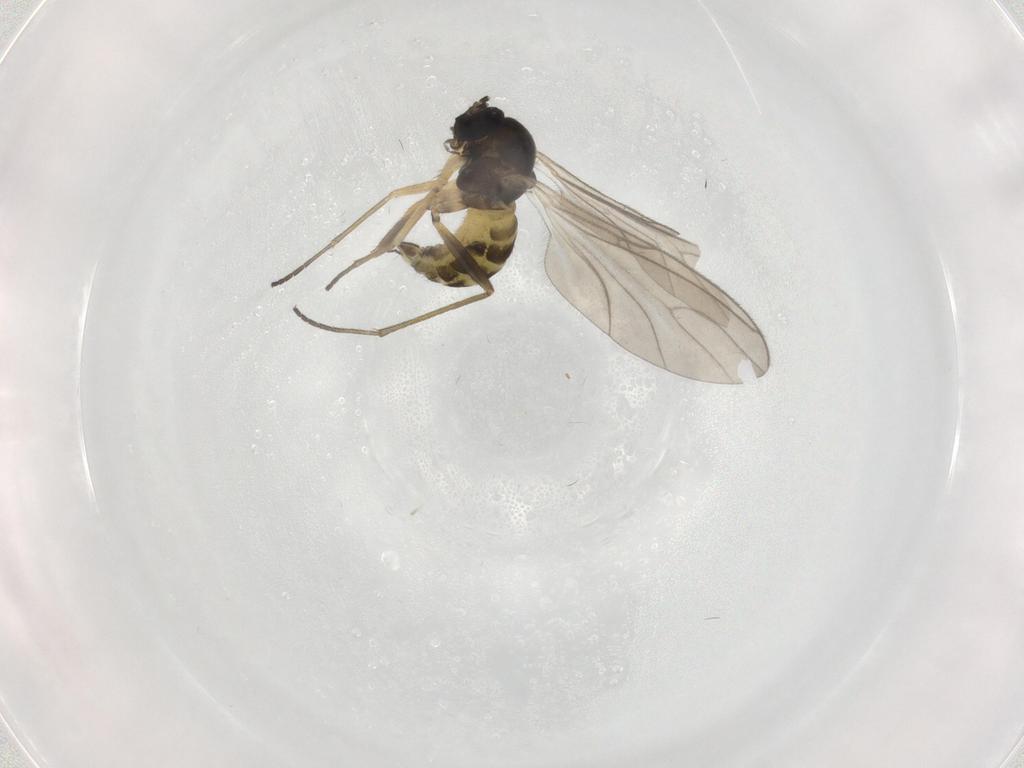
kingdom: Animalia
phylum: Arthropoda
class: Insecta
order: Diptera
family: Sciaridae
